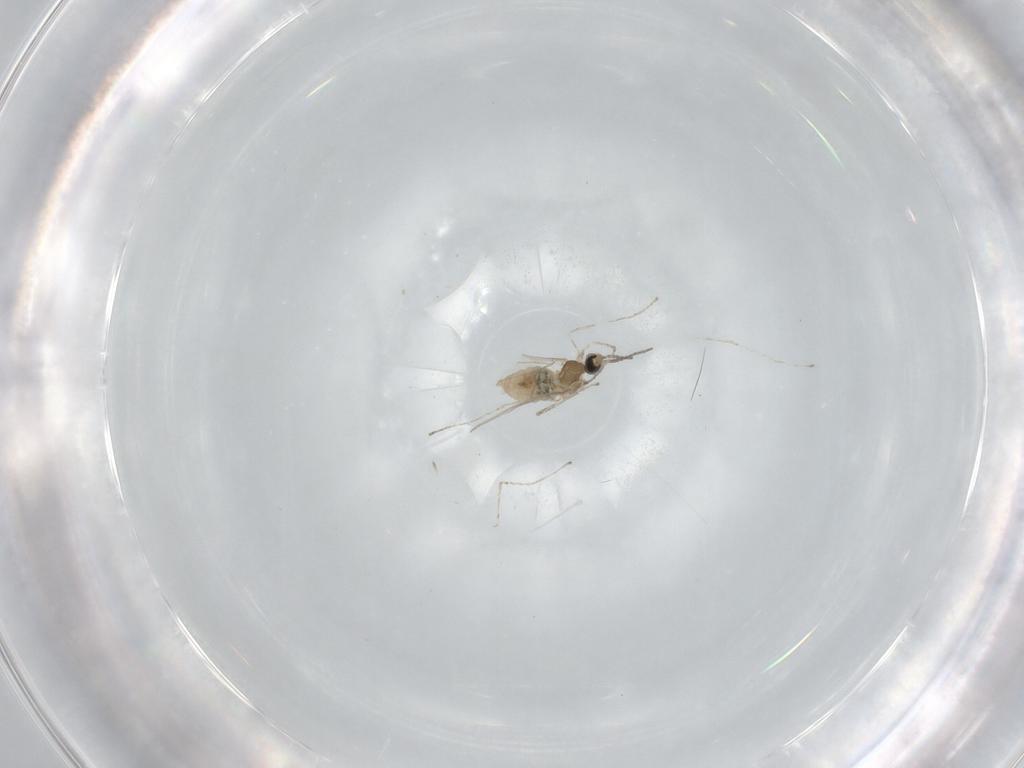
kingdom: Animalia
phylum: Arthropoda
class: Insecta
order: Diptera
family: Cecidomyiidae
